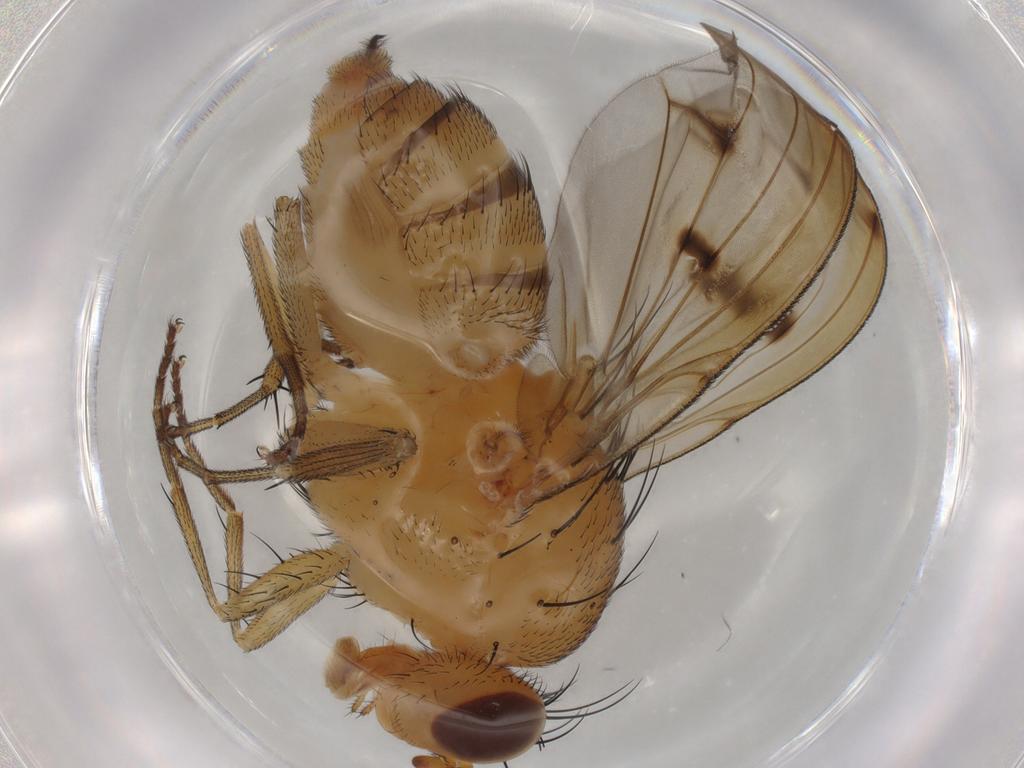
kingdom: Animalia
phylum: Arthropoda
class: Insecta
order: Diptera
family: Lauxaniidae
